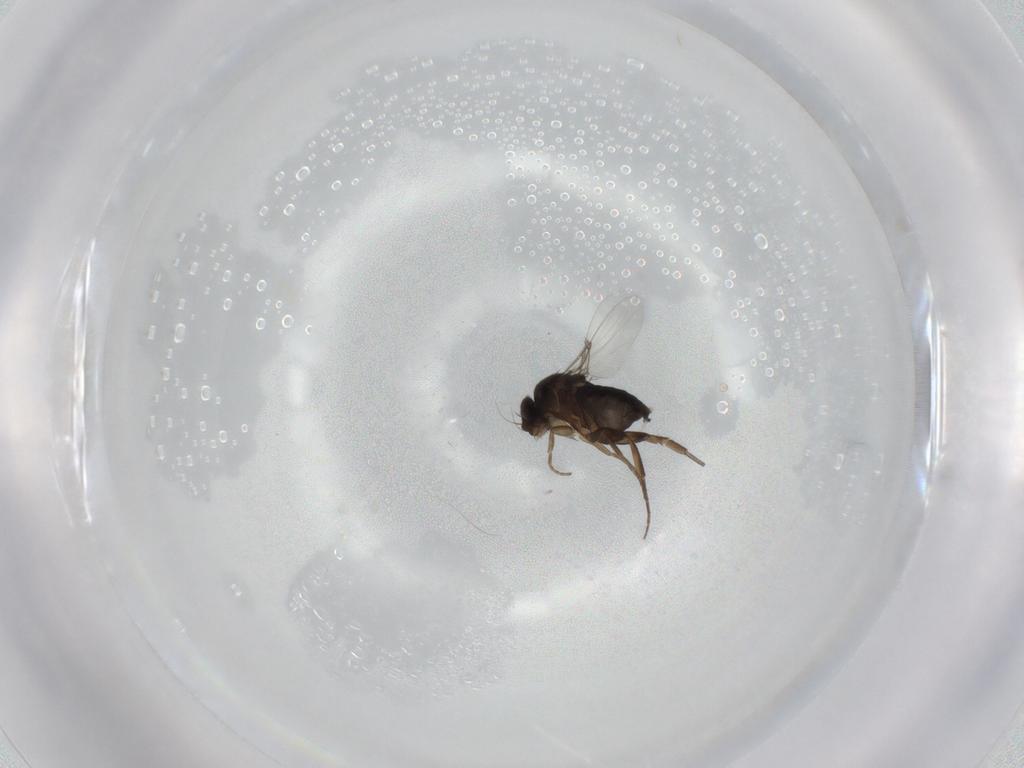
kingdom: Animalia
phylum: Arthropoda
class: Insecta
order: Diptera
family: Phoridae
